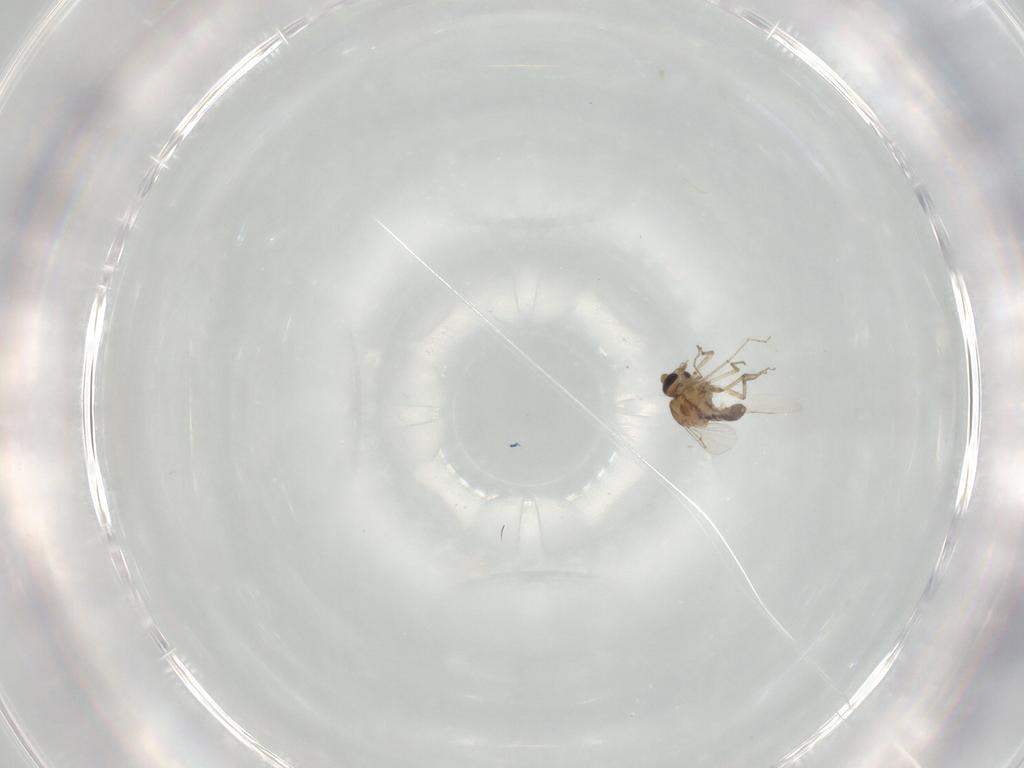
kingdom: Animalia
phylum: Arthropoda
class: Insecta
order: Diptera
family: Ceratopogonidae
